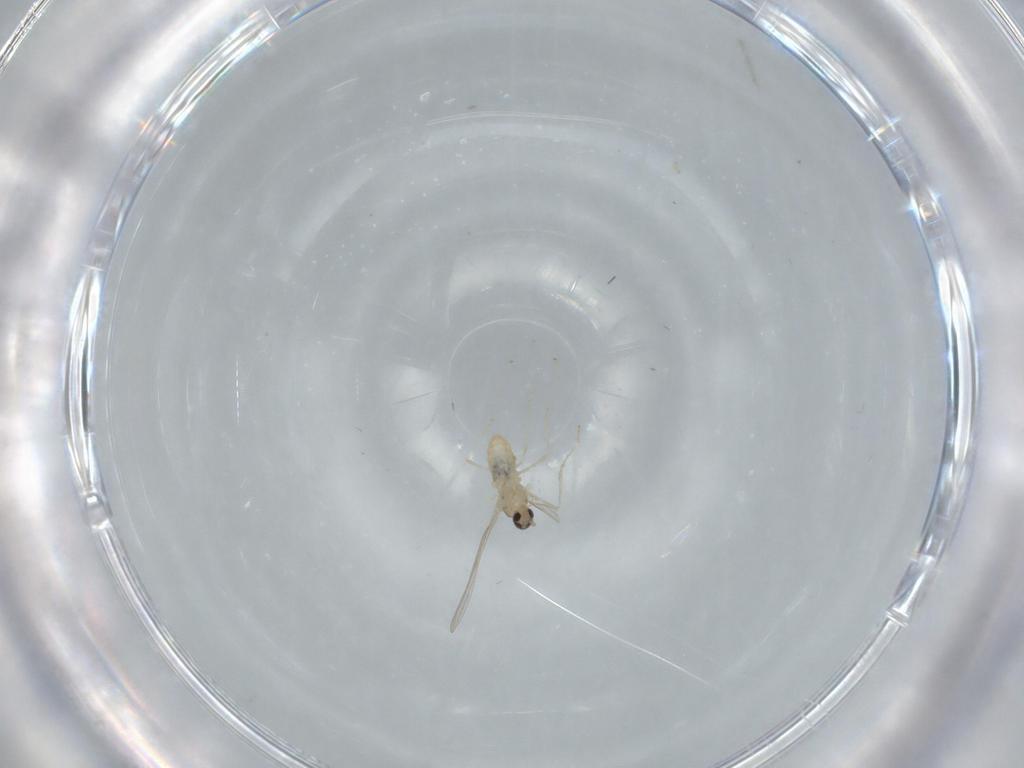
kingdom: Animalia
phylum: Arthropoda
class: Insecta
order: Diptera
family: Cecidomyiidae
